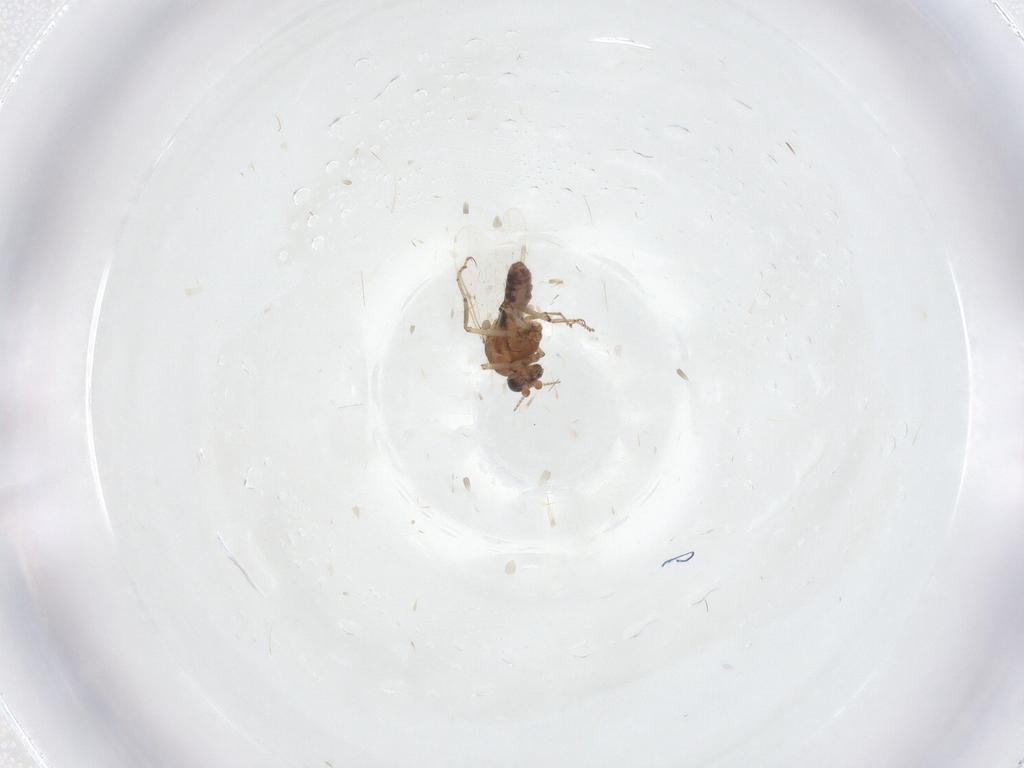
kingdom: Animalia
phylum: Arthropoda
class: Insecta
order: Diptera
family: Ceratopogonidae
